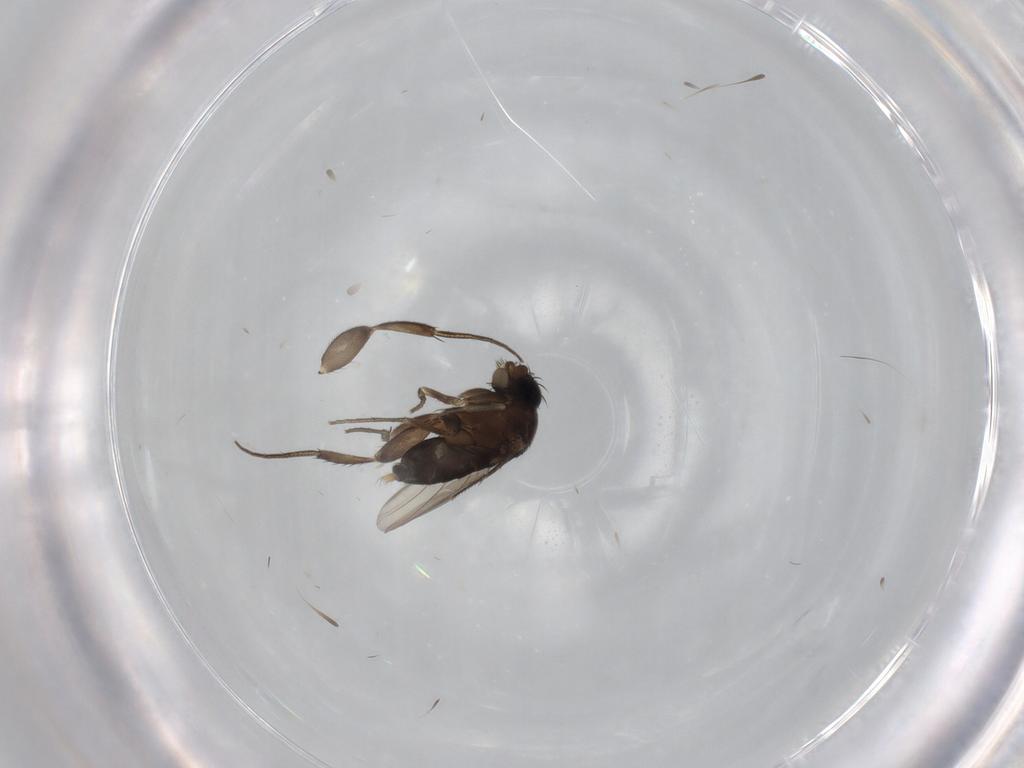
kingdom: Animalia
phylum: Arthropoda
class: Insecta
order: Diptera
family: Phoridae
